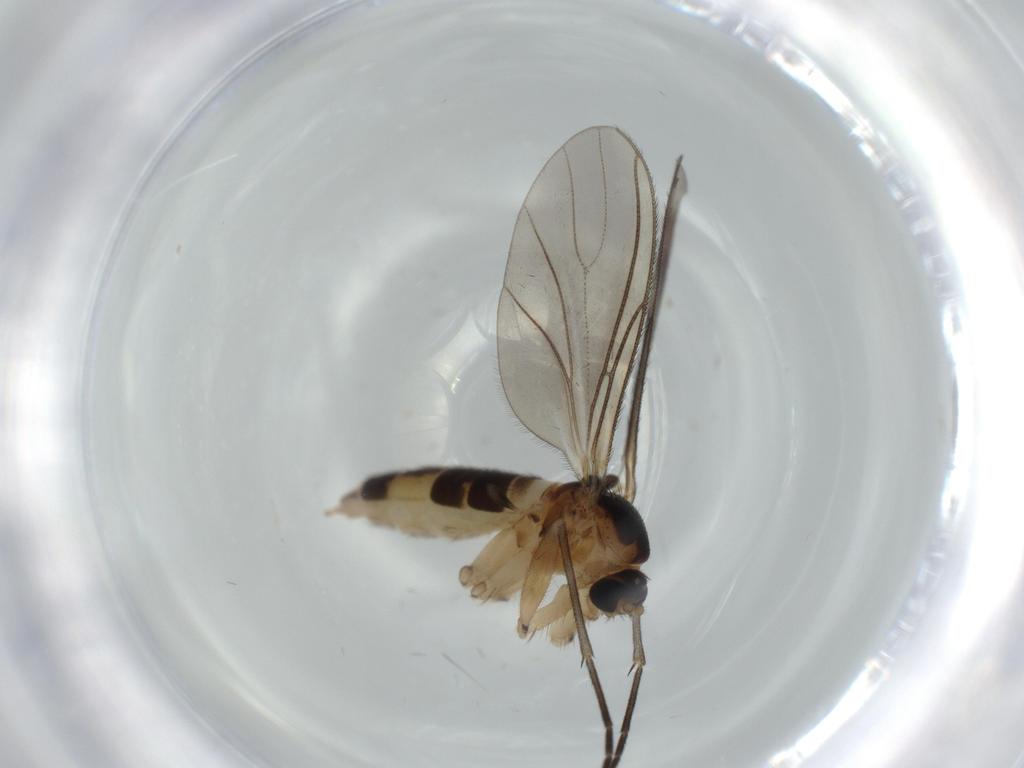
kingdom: Animalia
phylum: Arthropoda
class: Insecta
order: Diptera
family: Sciaridae
